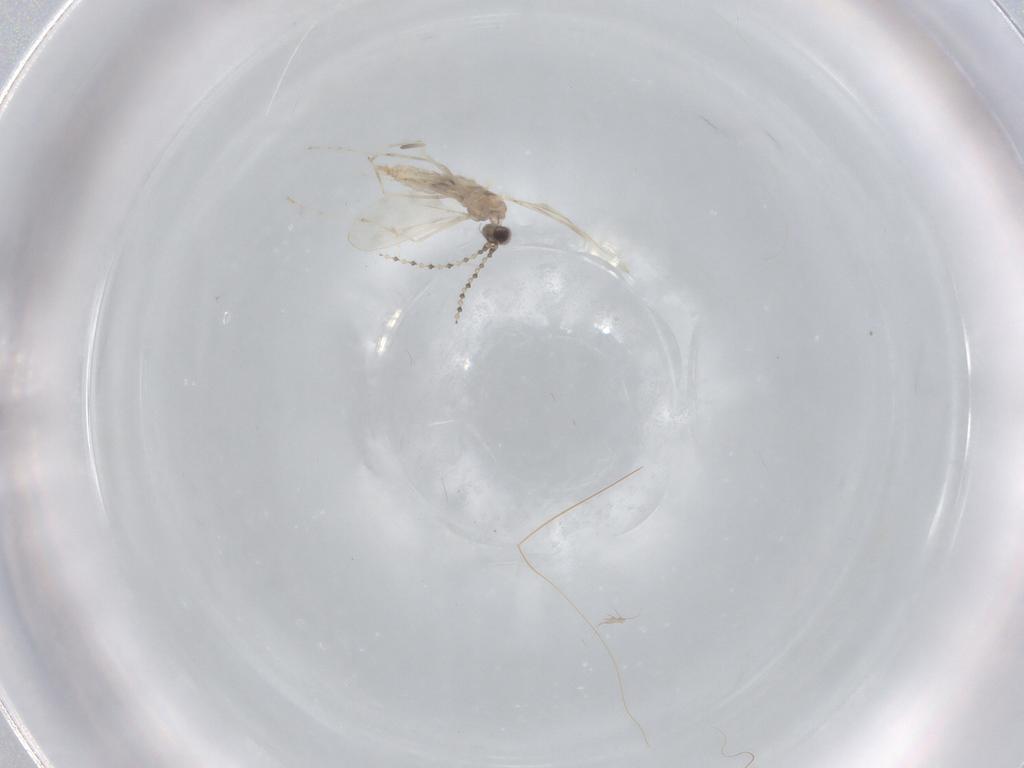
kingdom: Animalia
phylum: Arthropoda
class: Insecta
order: Diptera
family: Cecidomyiidae
